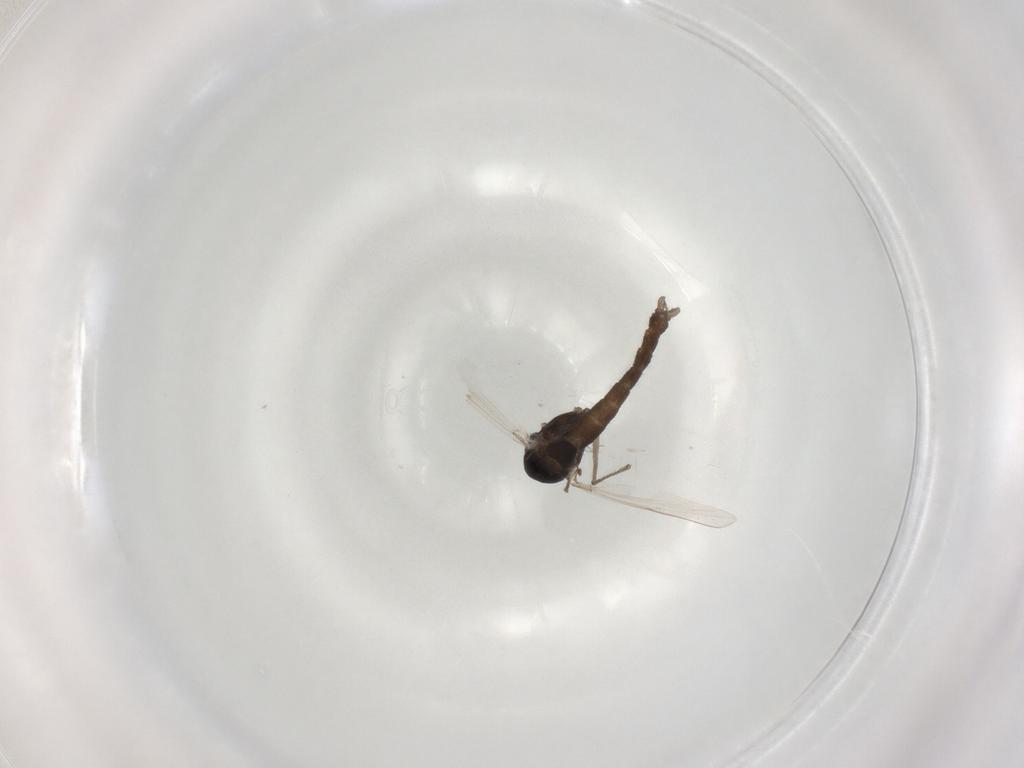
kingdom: Animalia
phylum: Arthropoda
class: Insecta
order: Diptera
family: Chironomidae
